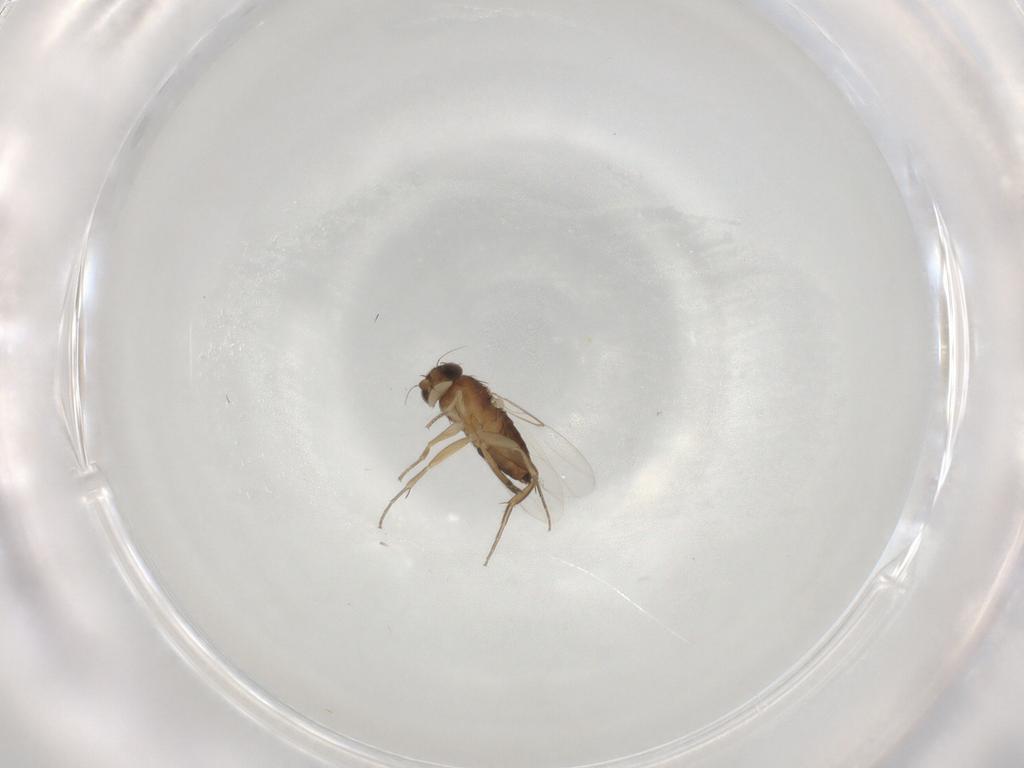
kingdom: Animalia
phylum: Arthropoda
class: Insecta
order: Diptera
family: Phoridae
